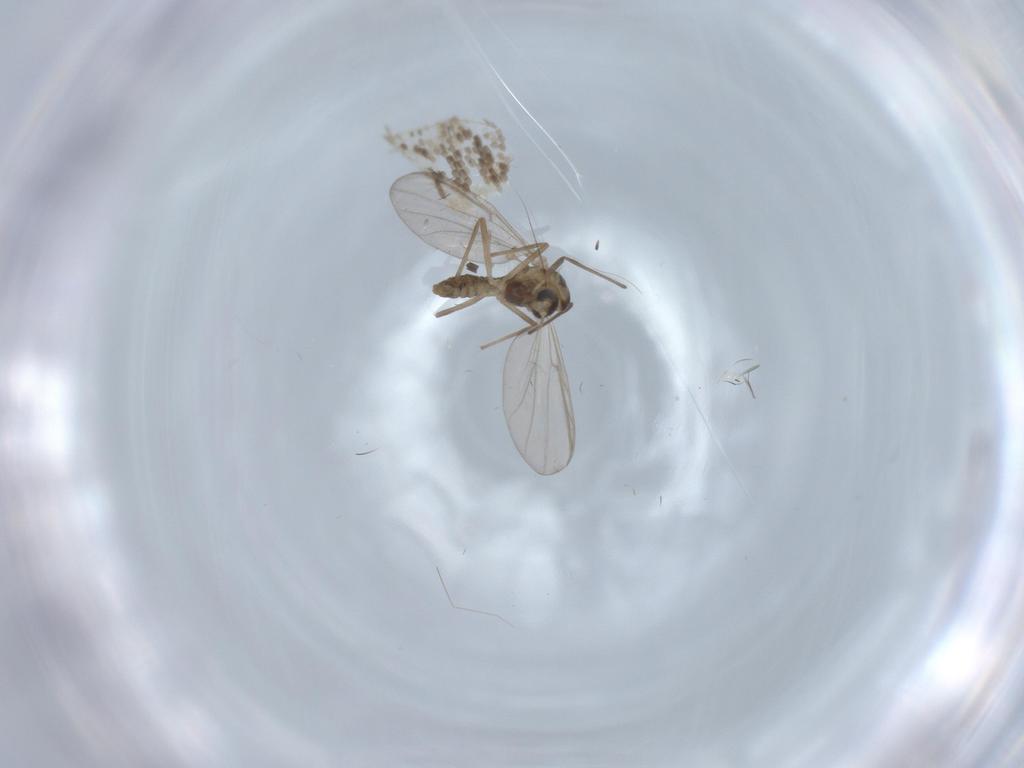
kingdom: Animalia
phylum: Arthropoda
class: Insecta
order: Diptera
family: Chironomidae
